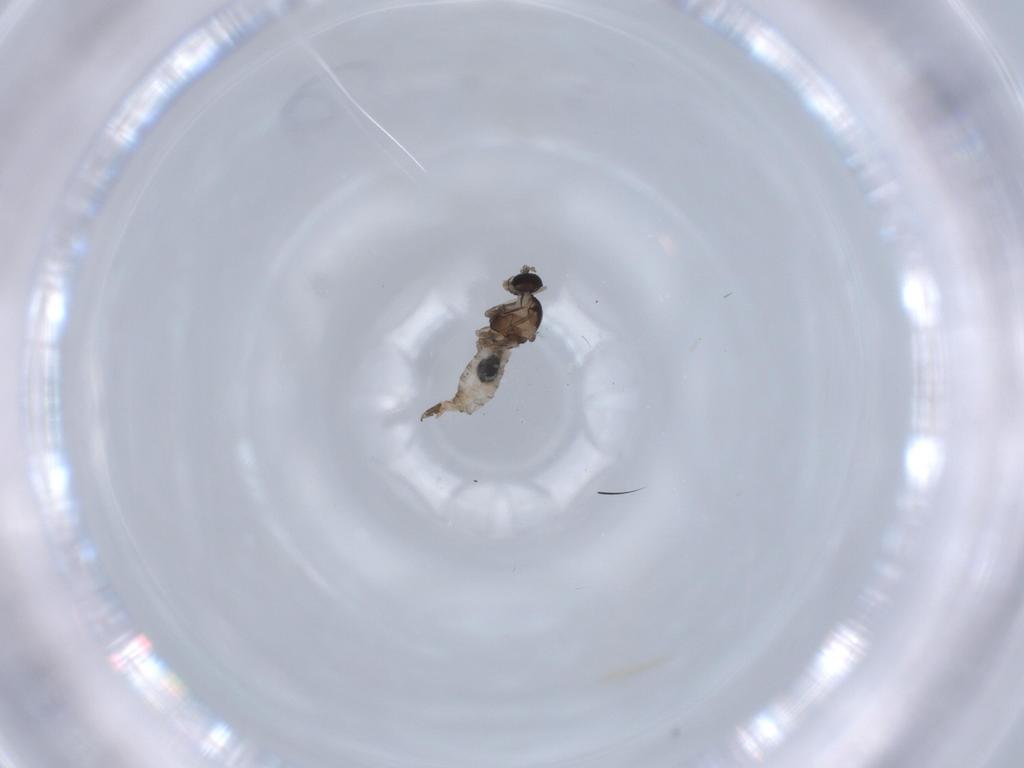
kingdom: Animalia
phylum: Arthropoda
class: Insecta
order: Diptera
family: Cecidomyiidae
